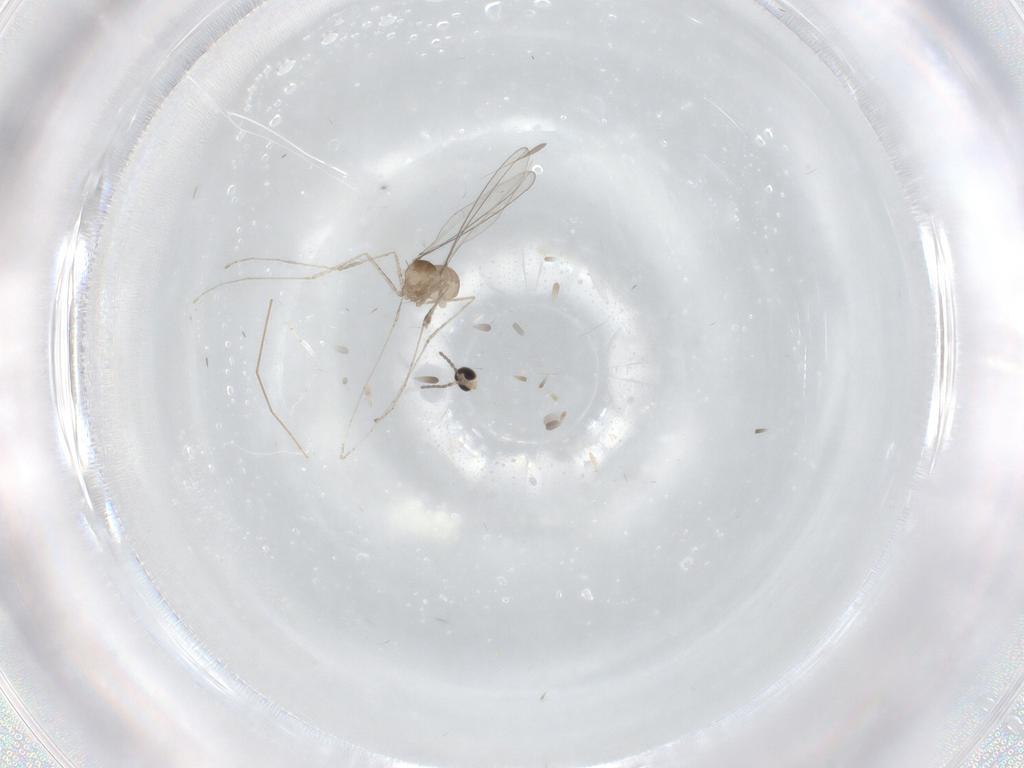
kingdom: Animalia
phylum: Arthropoda
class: Insecta
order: Diptera
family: Cecidomyiidae
